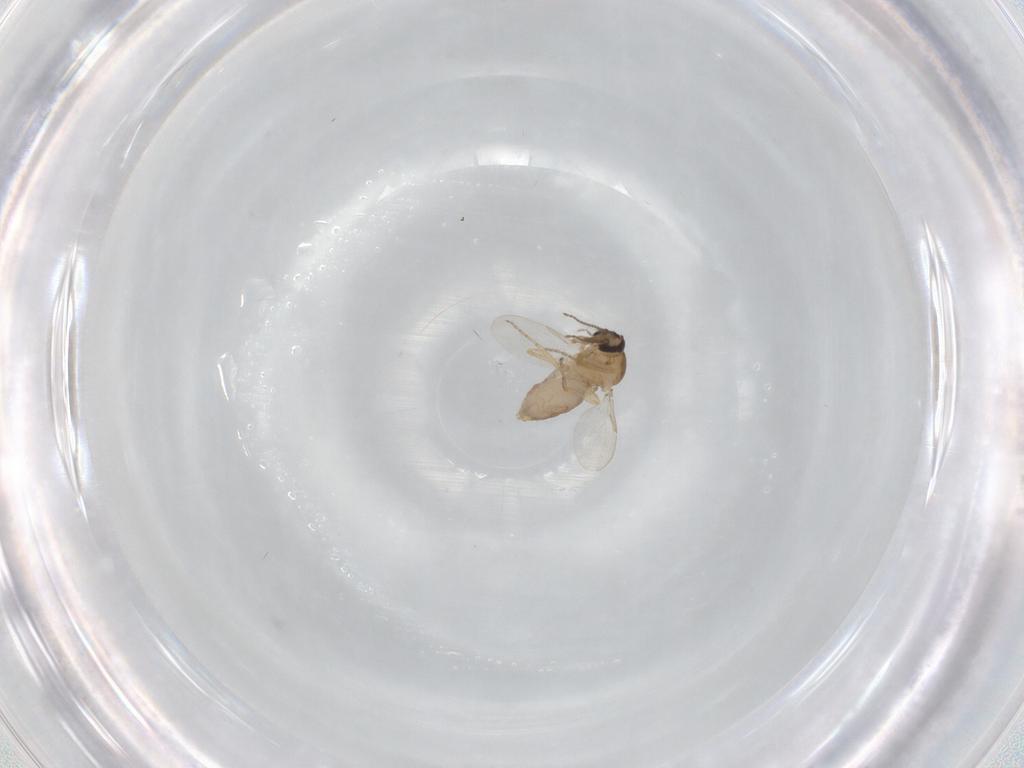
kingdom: Animalia
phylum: Arthropoda
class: Insecta
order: Diptera
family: Ceratopogonidae
